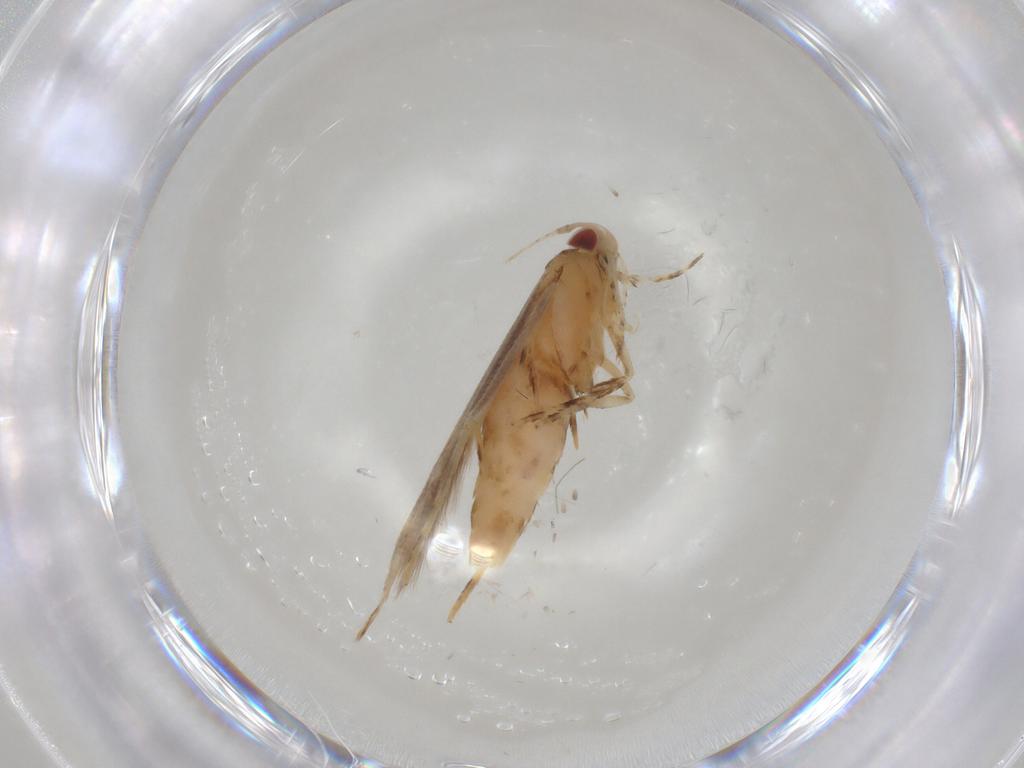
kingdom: Animalia
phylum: Arthropoda
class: Insecta
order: Lepidoptera
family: Cosmopterigidae
